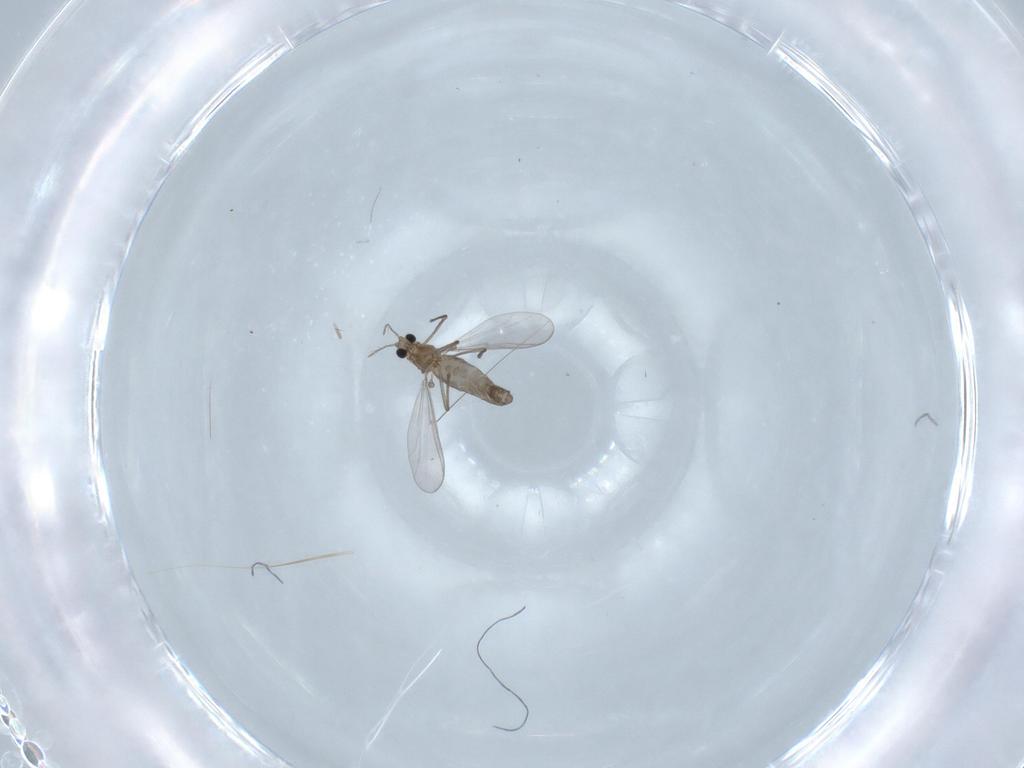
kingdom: Animalia
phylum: Arthropoda
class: Insecta
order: Diptera
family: Chironomidae
